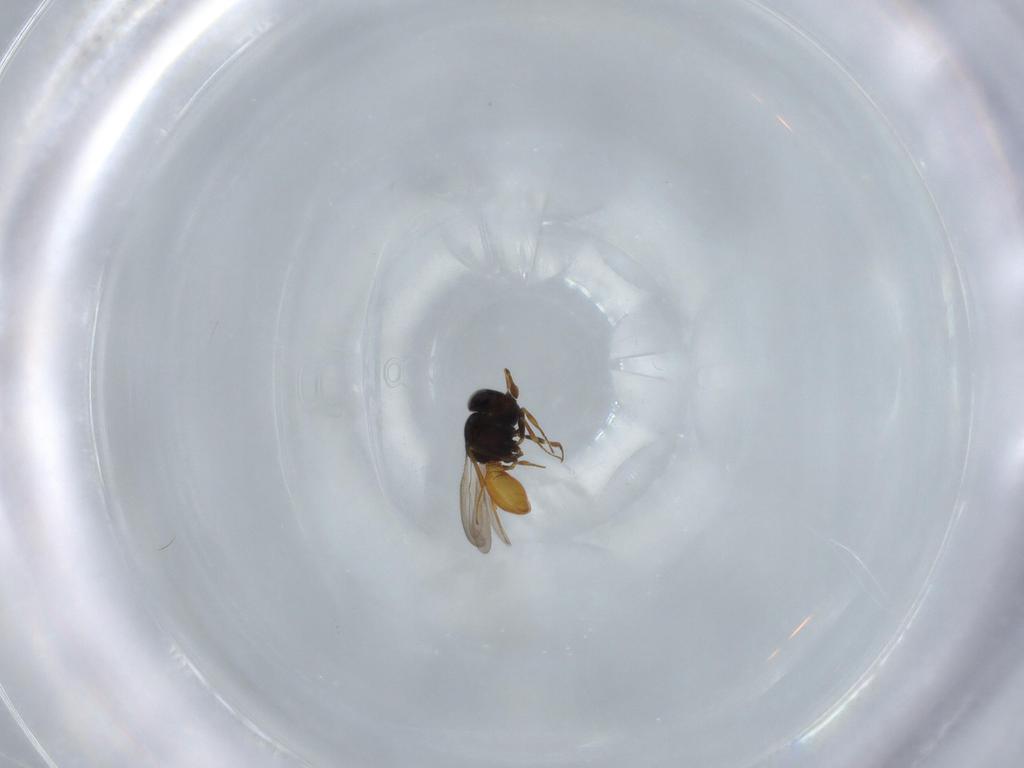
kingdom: Animalia
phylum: Arthropoda
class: Insecta
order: Hymenoptera
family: Scelionidae
